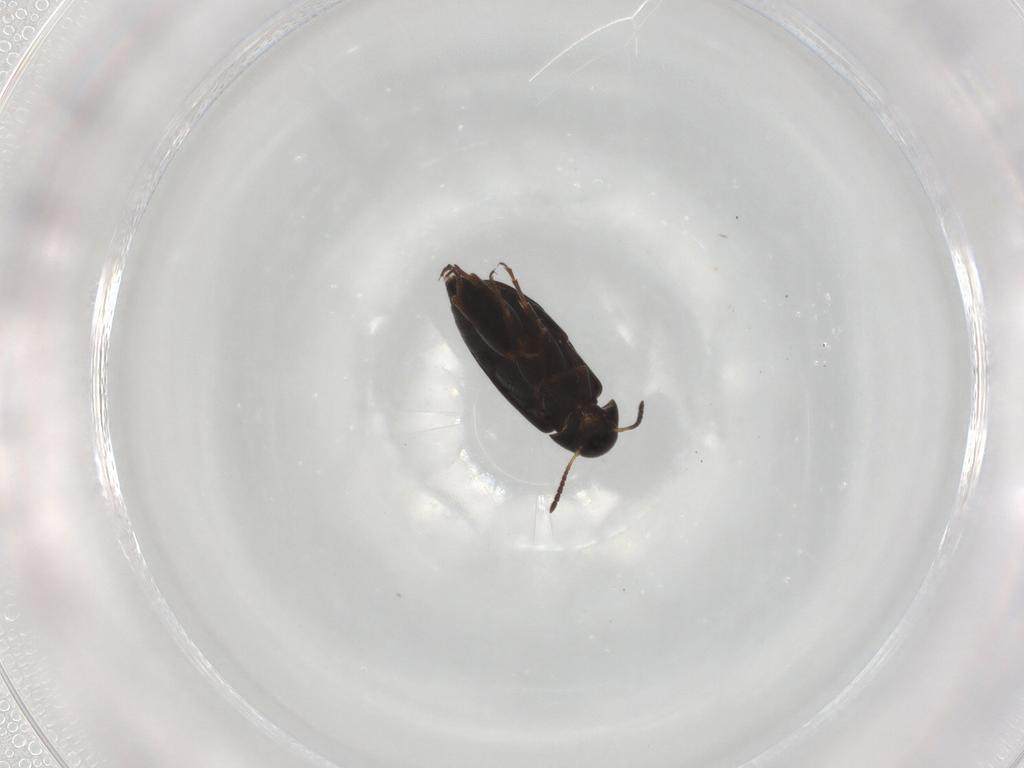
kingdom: Animalia
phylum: Arthropoda
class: Insecta
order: Coleoptera
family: Scraptiidae
